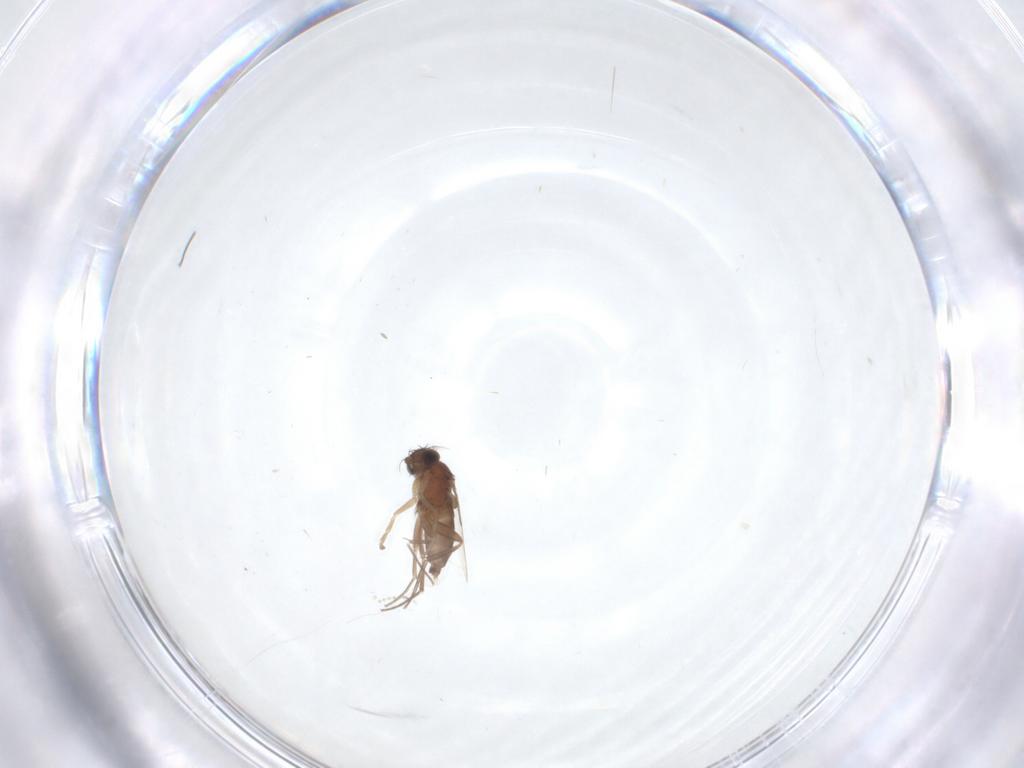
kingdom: Animalia
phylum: Arthropoda
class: Insecta
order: Diptera
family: Phoridae
